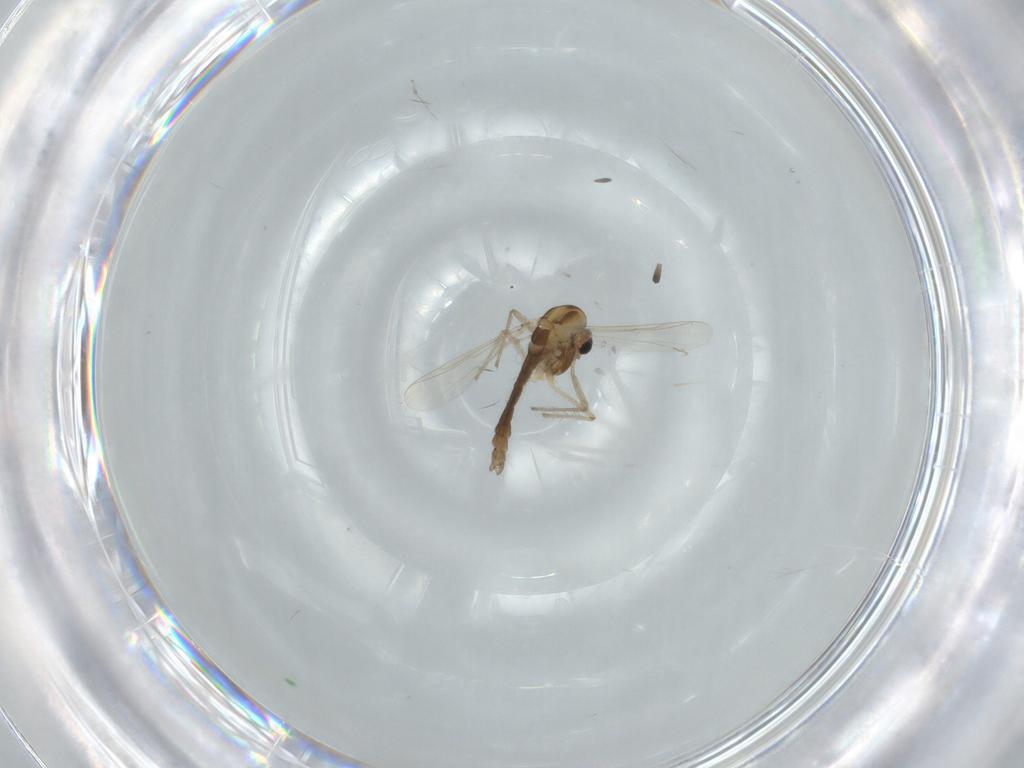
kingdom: Animalia
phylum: Arthropoda
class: Insecta
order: Diptera
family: Chironomidae
